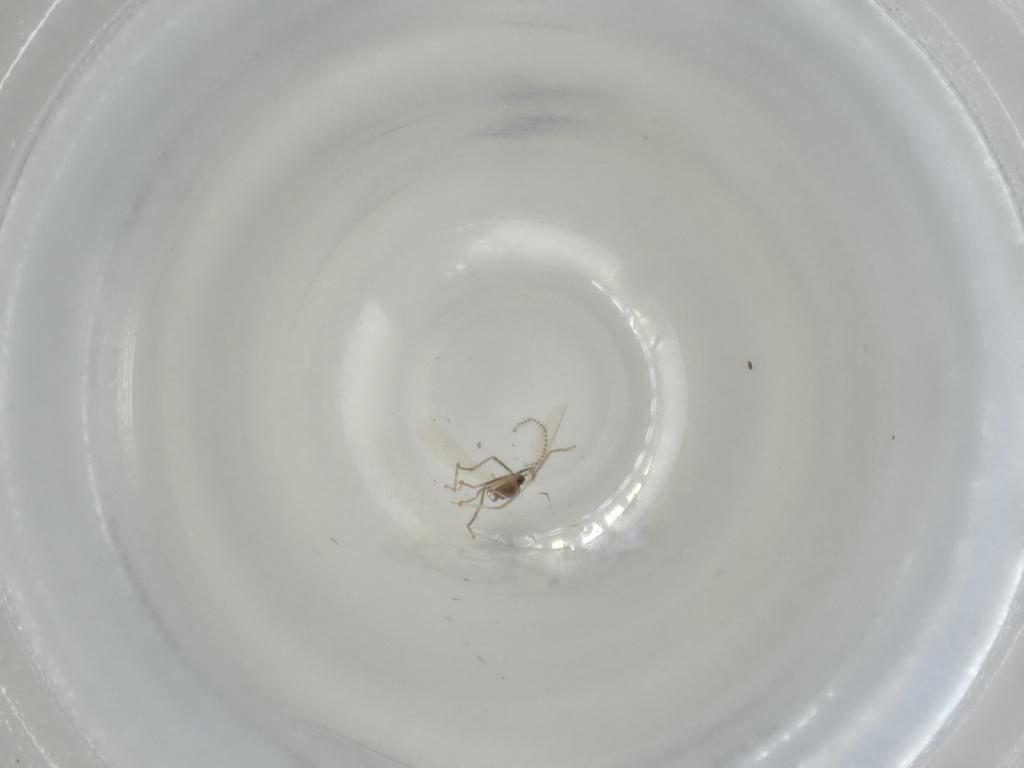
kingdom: Animalia
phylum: Arthropoda
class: Insecta
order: Diptera
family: Cecidomyiidae
